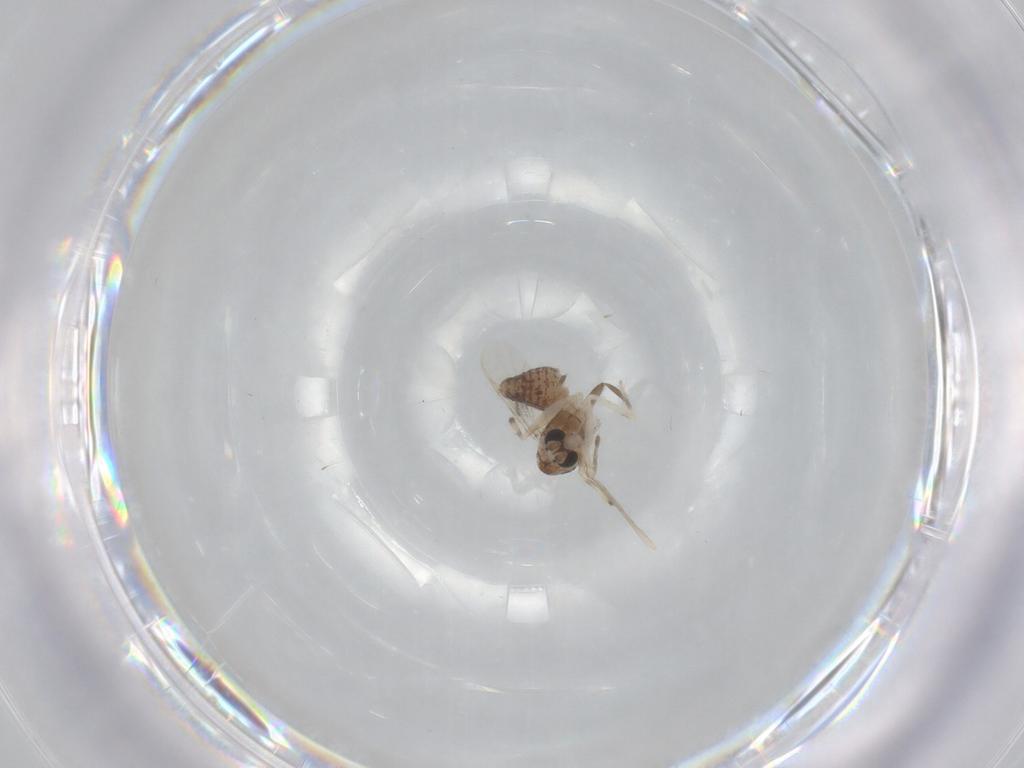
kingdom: Animalia
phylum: Arthropoda
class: Insecta
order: Diptera
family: Chironomidae
